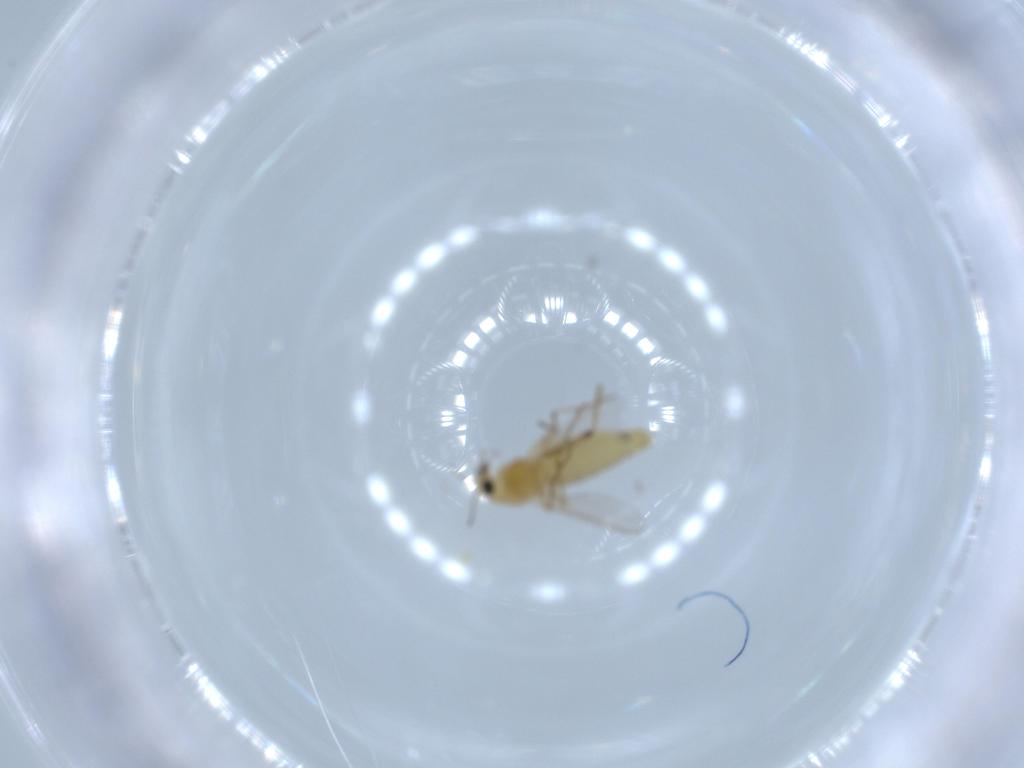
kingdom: Animalia
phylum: Arthropoda
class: Insecta
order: Diptera
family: Chironomidae
